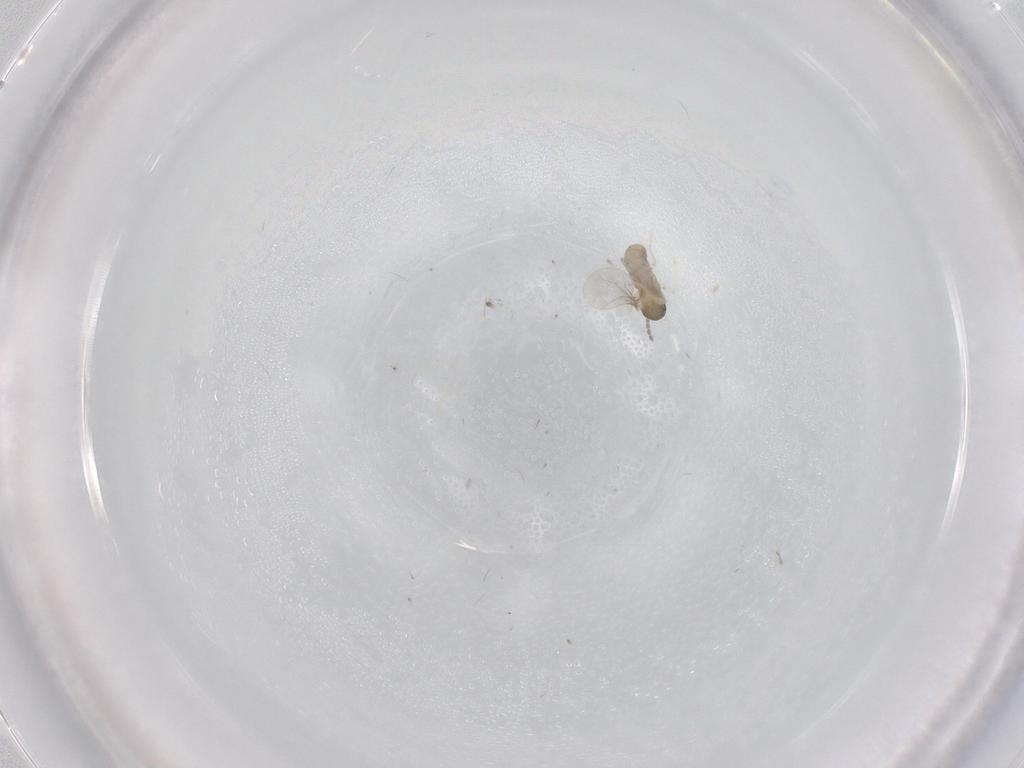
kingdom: Animalia
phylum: Arthropoda
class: Insecta
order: Diptera
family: Cecidomyiidae
